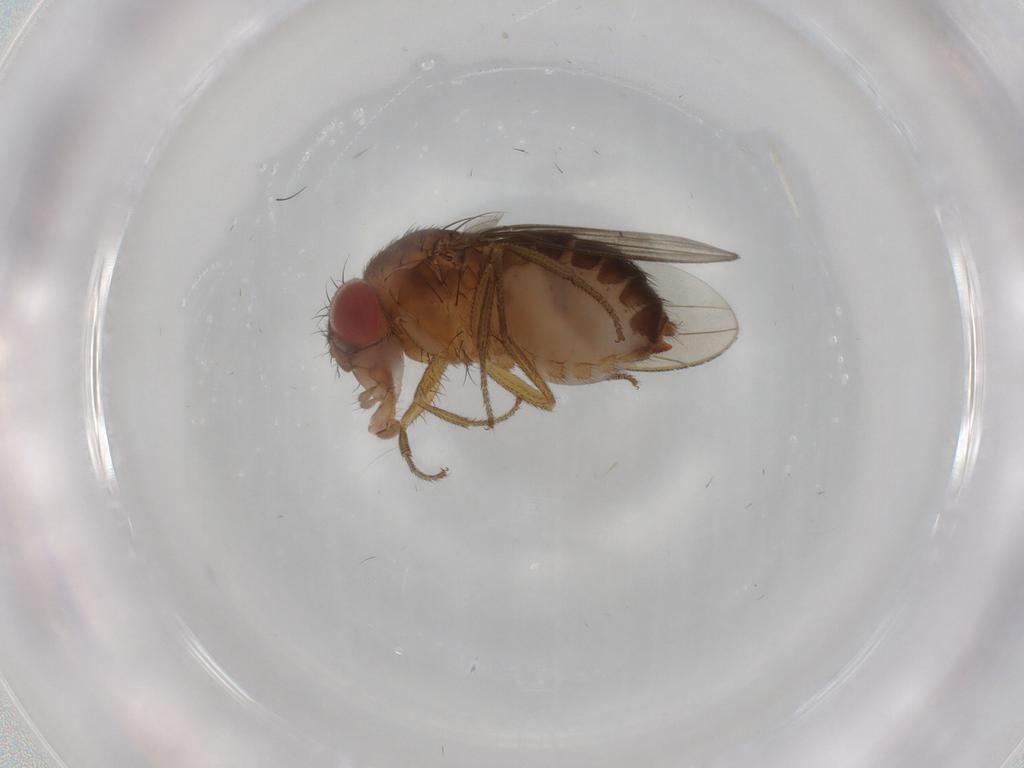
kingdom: Animalia
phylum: Arthropoda
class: Insecta
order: Diptera
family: Drosophilidae
